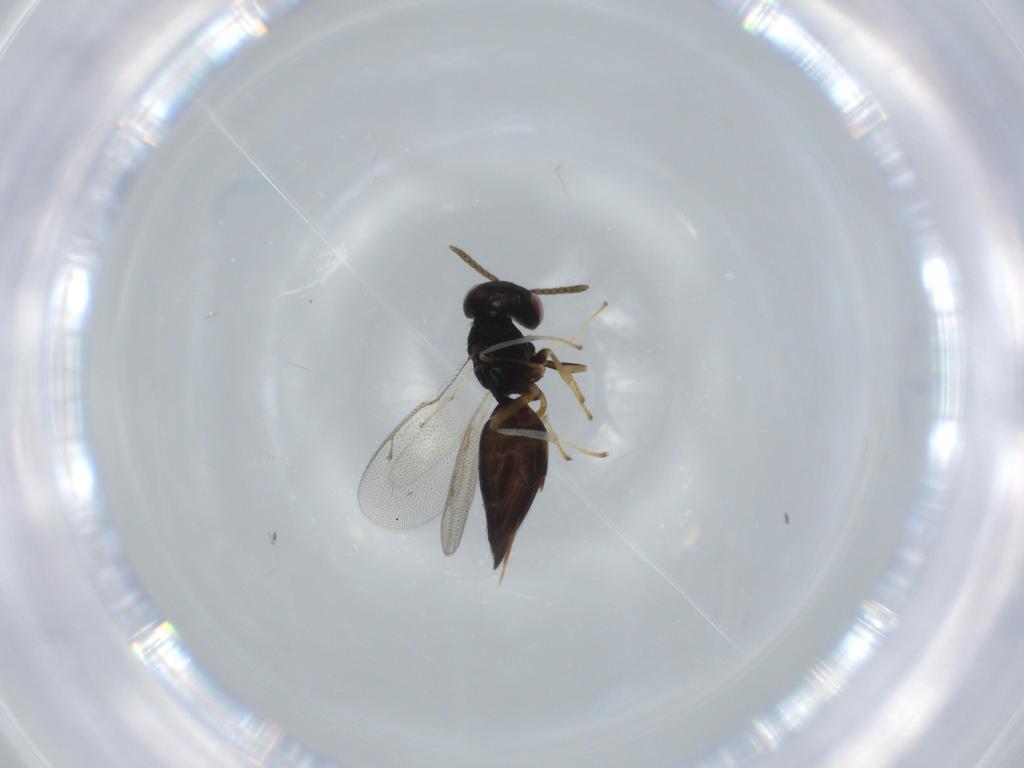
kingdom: Animalia
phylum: Arthropoda
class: Insecta
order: Hymenoptera
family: Pteromalidae
